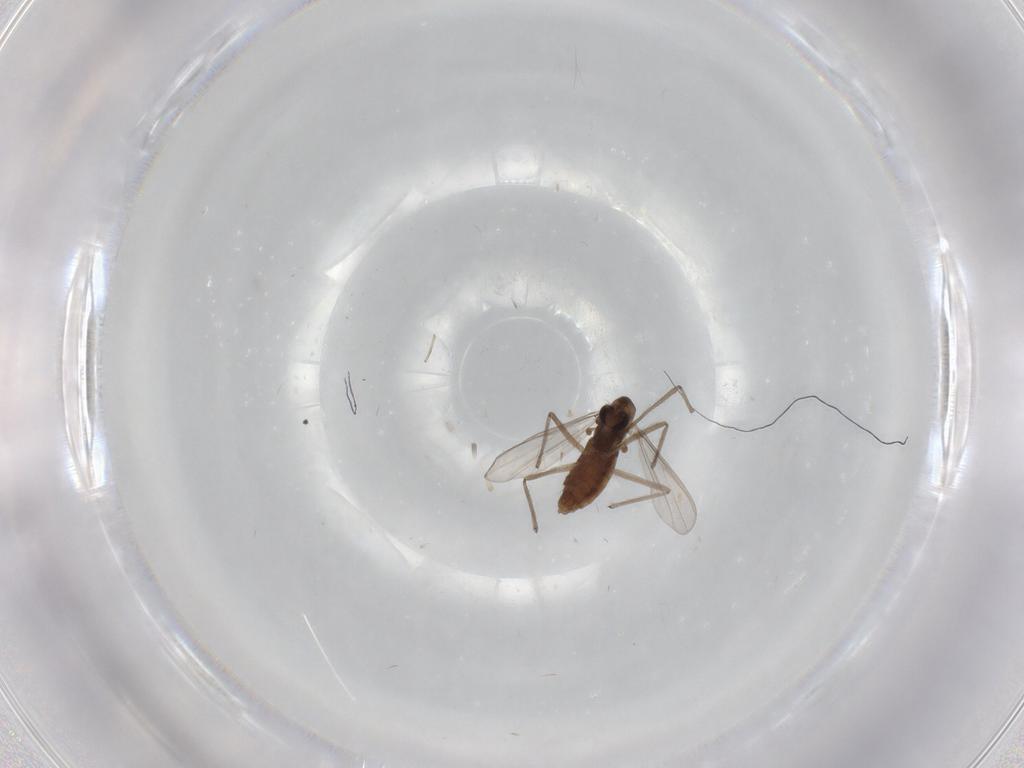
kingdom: Animalia
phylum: Arthropoda
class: Insecta
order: Diptera
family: Chironomidae
